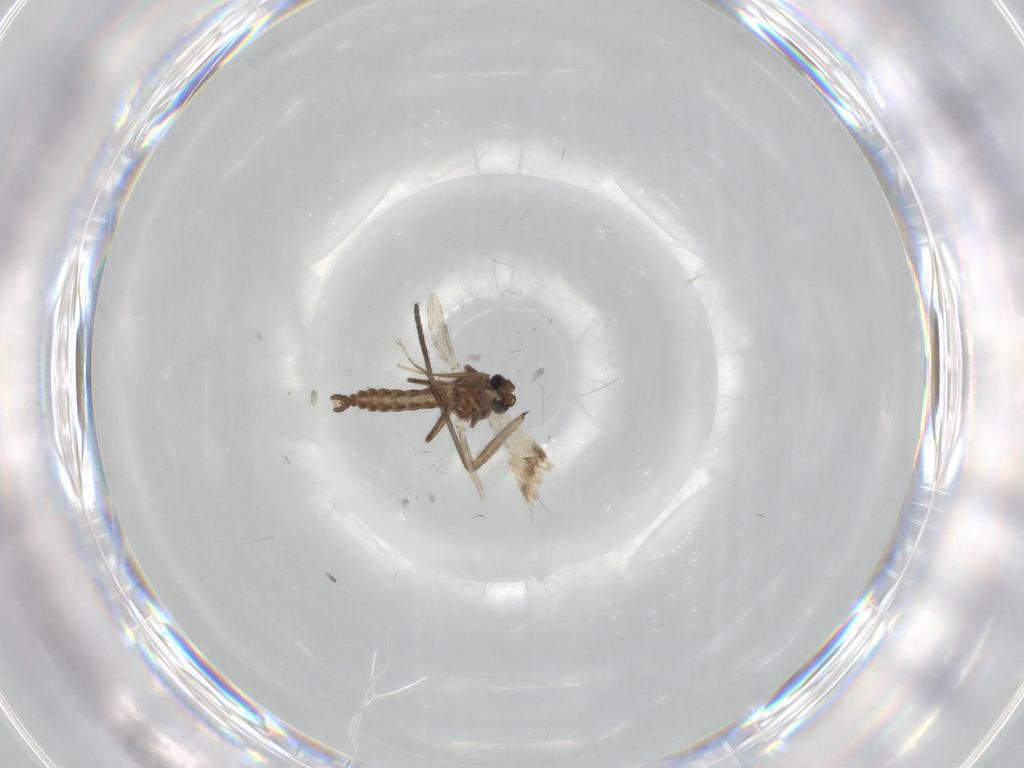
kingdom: Animalia
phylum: Arthropoda
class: Insecta
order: Diptera
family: Ceratopogonidae
